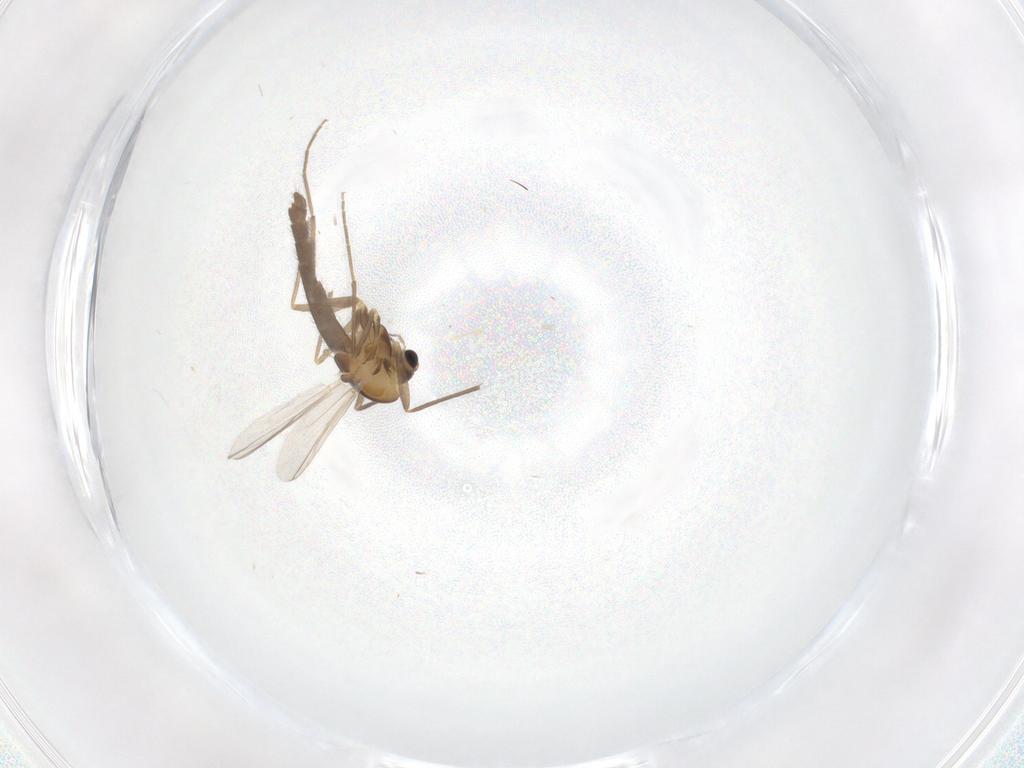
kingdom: Animalia
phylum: Arthropoda
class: Insecta
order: Diptera
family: Chironomidae
